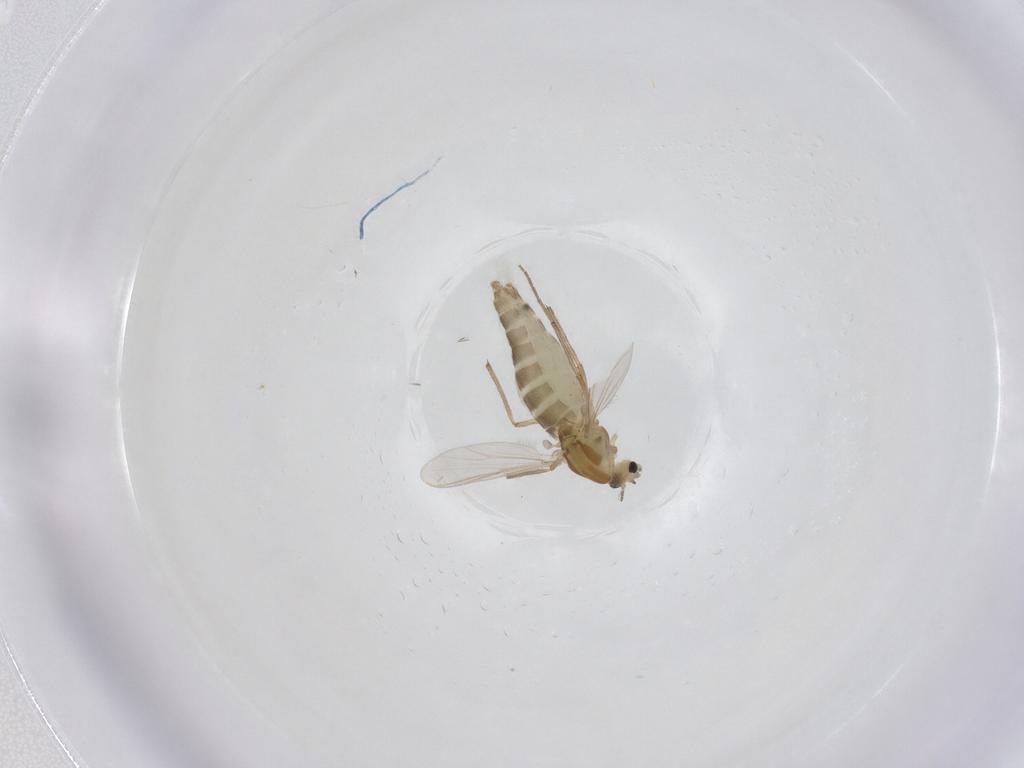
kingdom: Animalia
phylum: Arthropoda
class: Insecta
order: Diptera
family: Chironomidae
